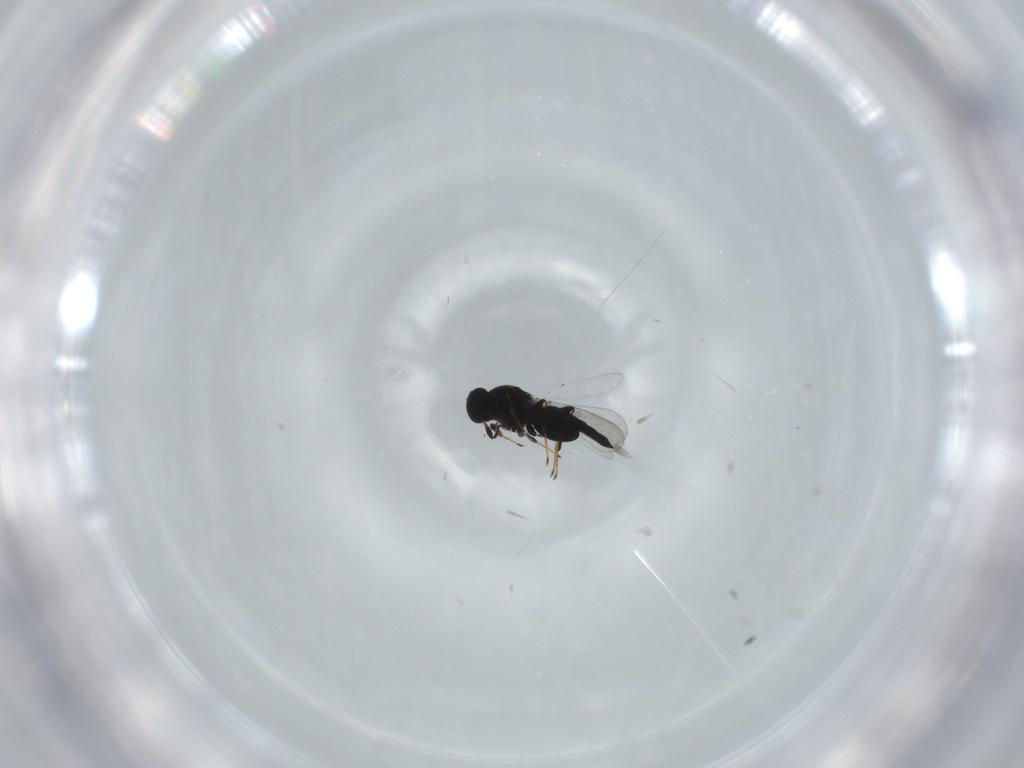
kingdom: Animalia
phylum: Arthropoda
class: Insecta
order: Hymenoptera
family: Platygastridae
